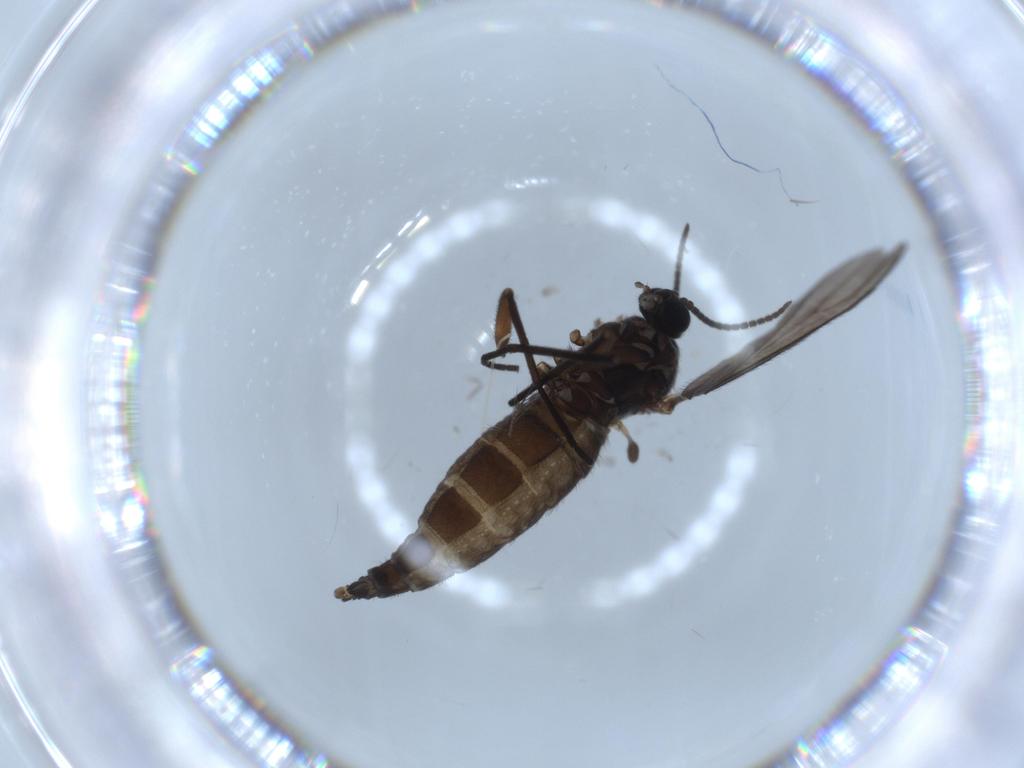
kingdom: Animalia
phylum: Arthropoda
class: Insecta
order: Diptera
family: Sciaridae
